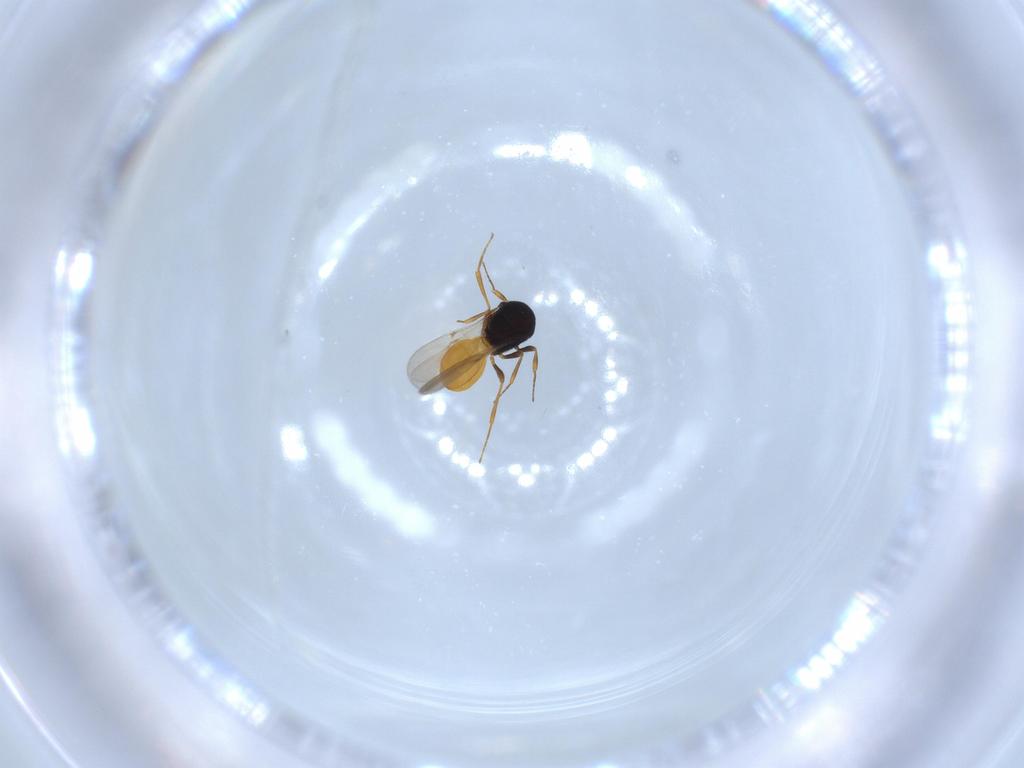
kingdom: Animalia
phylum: Arthropoda
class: Insecta
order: Hymenoptera
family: Scelionidae
